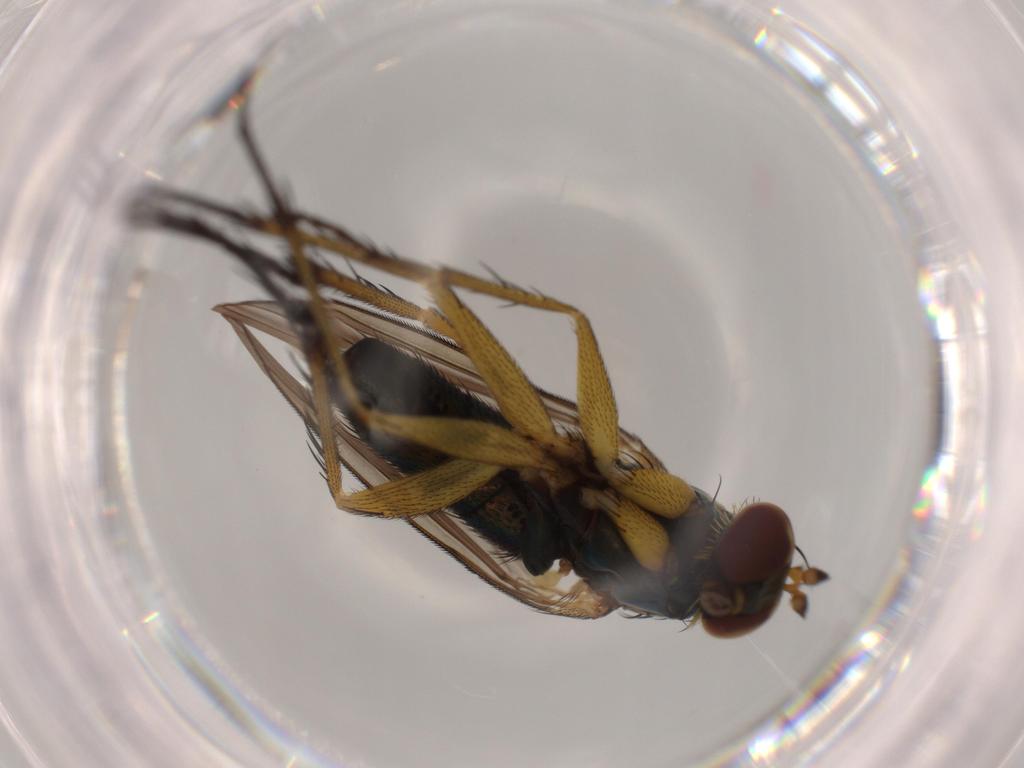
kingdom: Animalia
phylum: Arthropoda
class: Insecta
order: Diptera
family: Dolichopodidae
